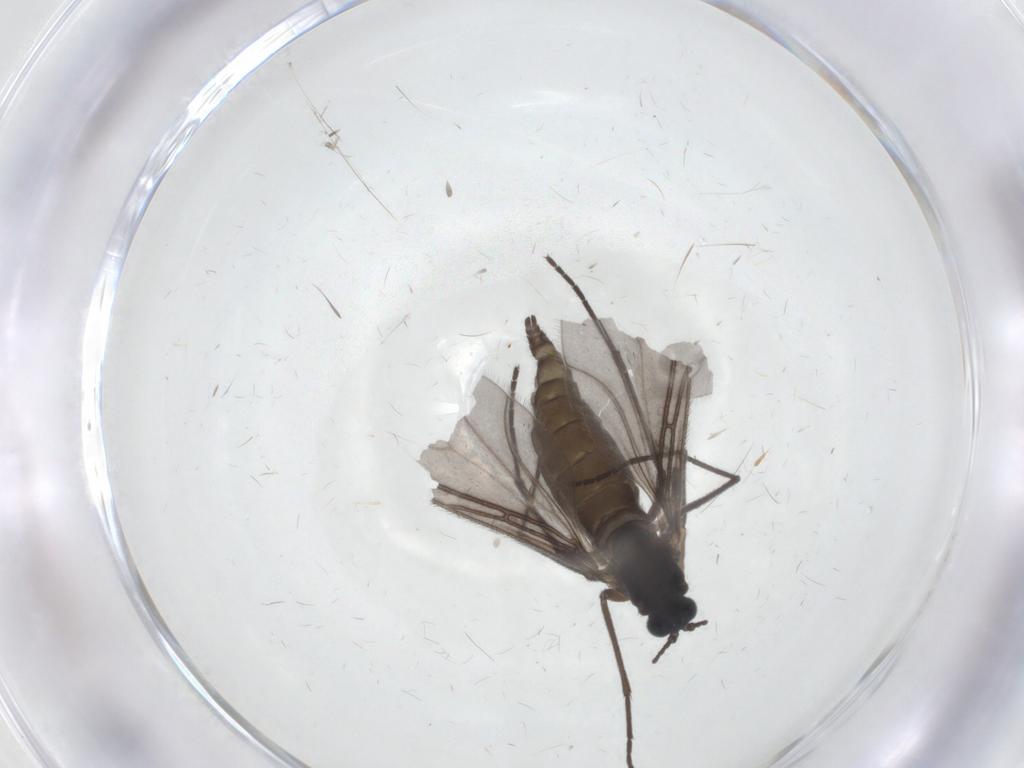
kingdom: Animalia
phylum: Arthropoda
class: Insecta
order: Diptera
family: Sciaridae
